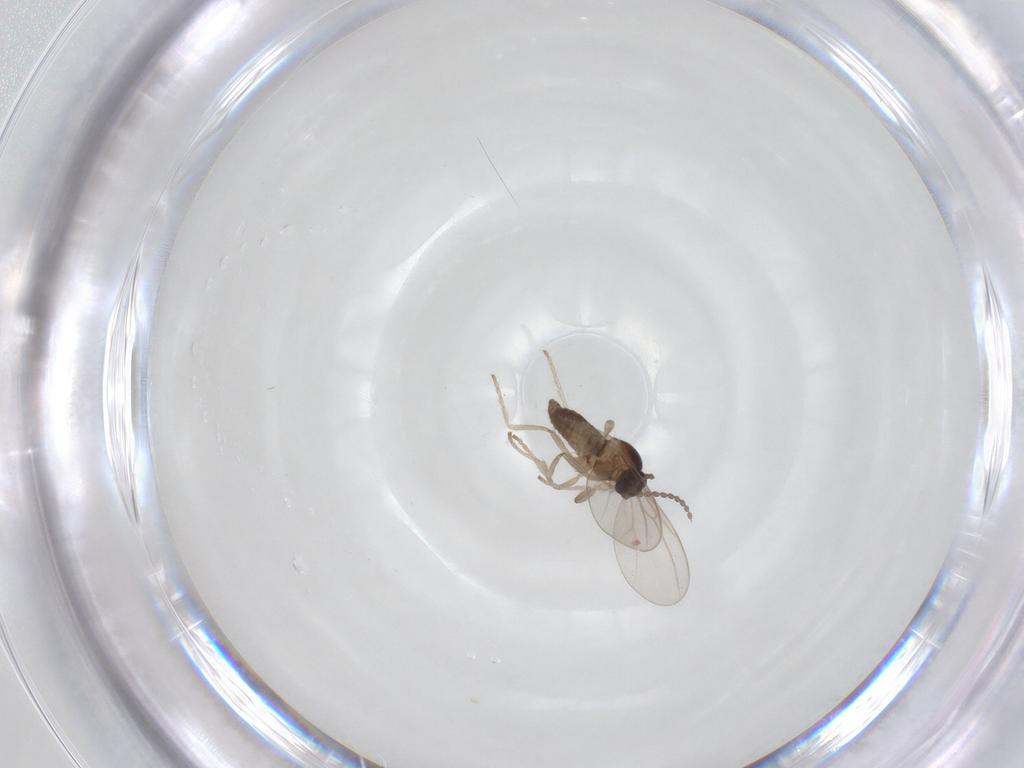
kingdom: Animalia
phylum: Arthropoda
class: Insecta
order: Diptera
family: Cecidomyiidae
